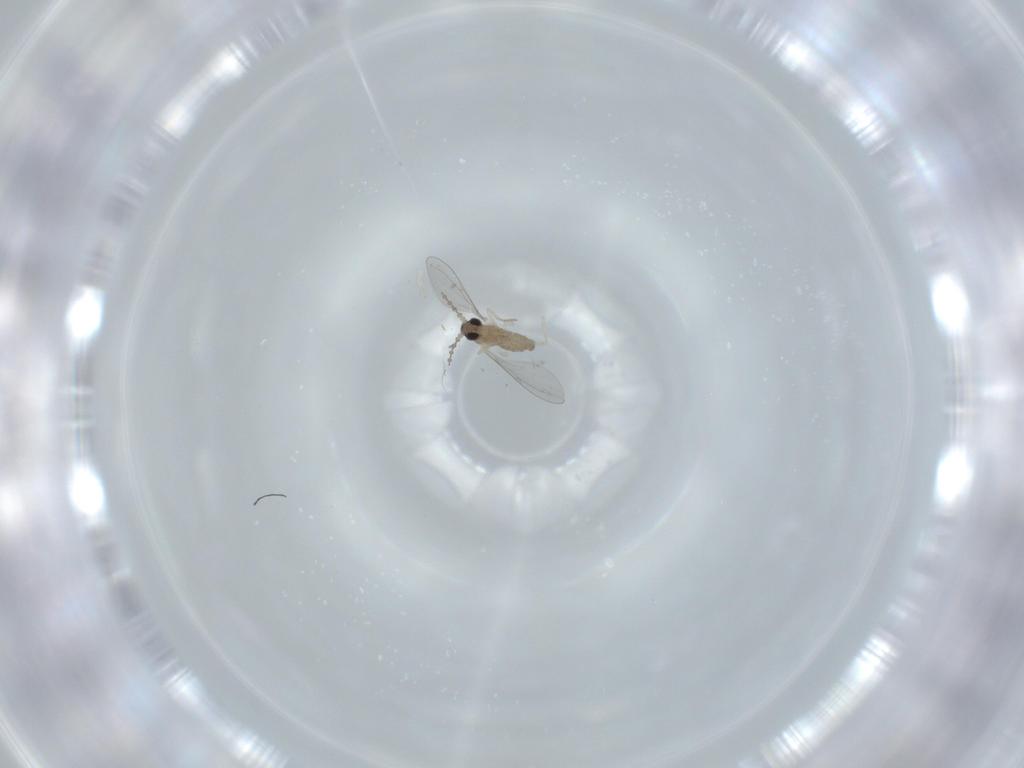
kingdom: Animalia
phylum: Arthropoda
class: Insecta
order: Diptera
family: Cecidomyiidae
